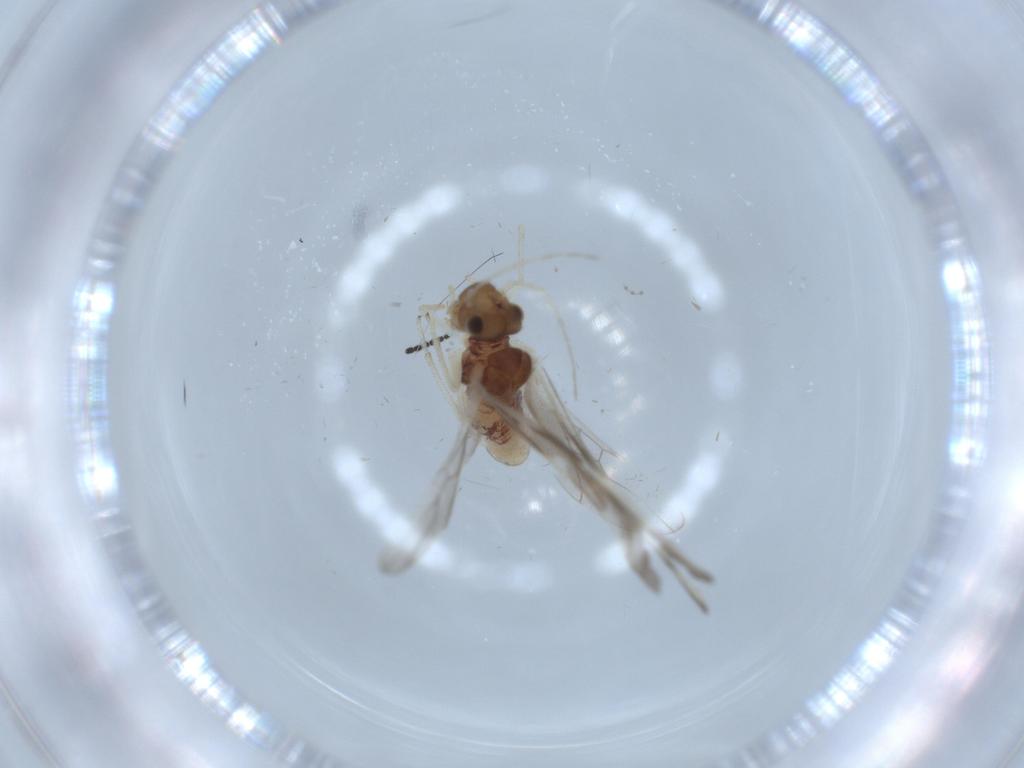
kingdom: Animalia
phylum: Arthropoda
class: Insecta
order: Psocodea
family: Caeciliusidae
